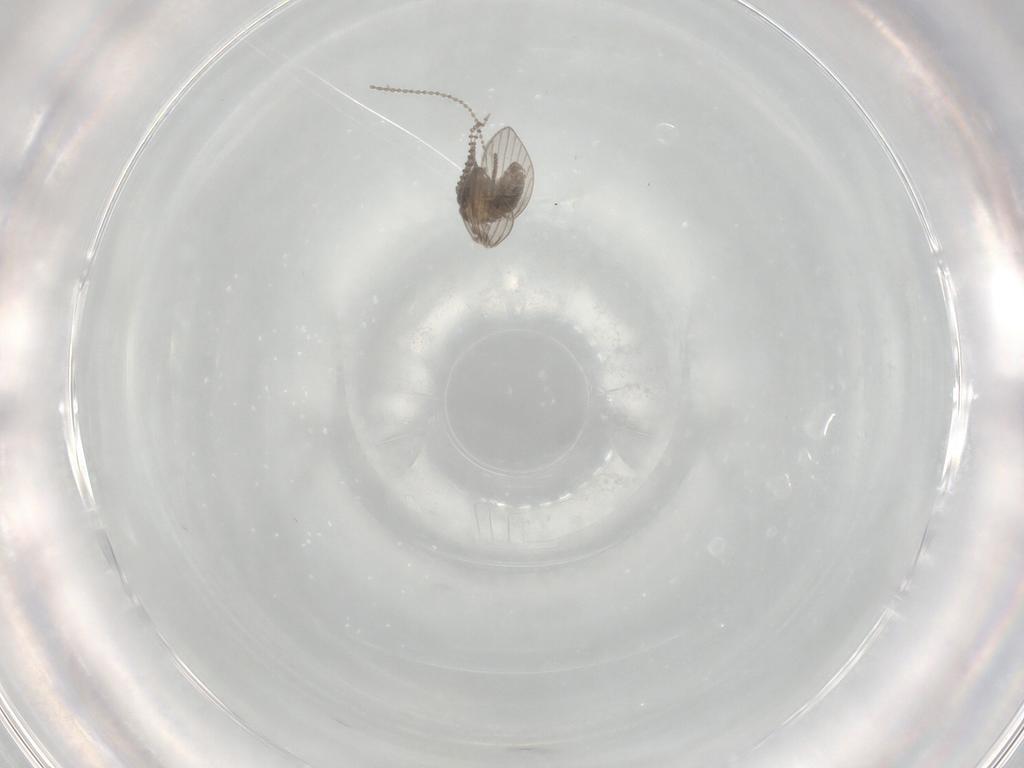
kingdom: Animalia
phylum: Arthropoda
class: Insecta
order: Diptera
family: Psychodidae
